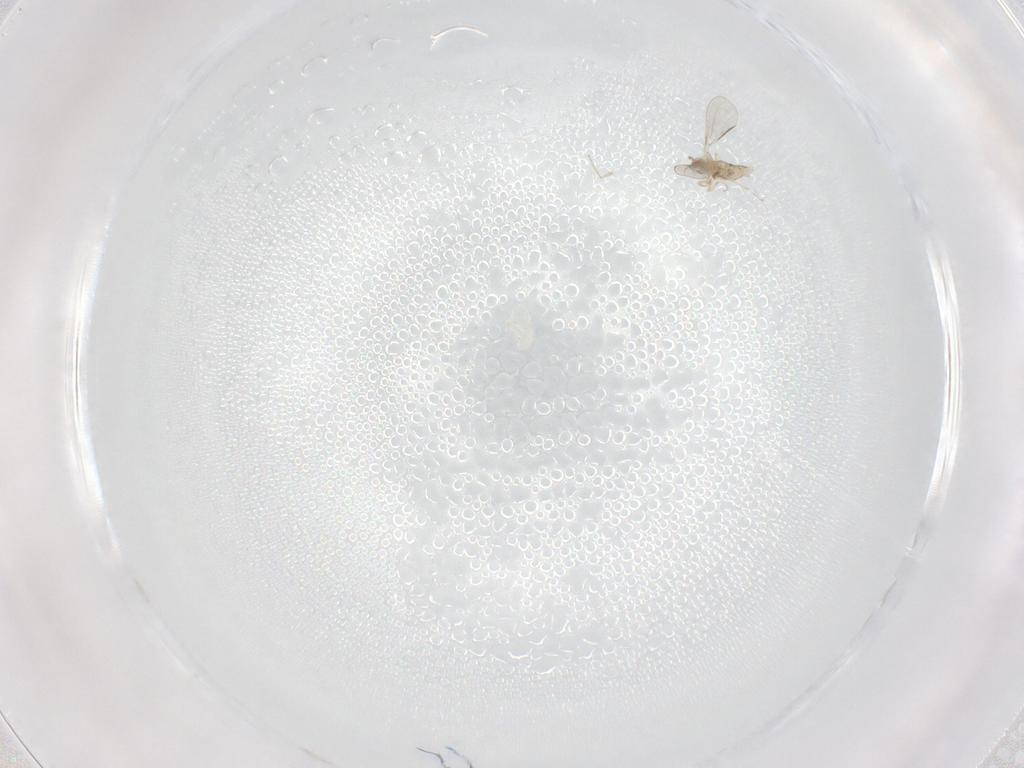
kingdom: Animalia
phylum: Arthropoda
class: Insecta
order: Diptera
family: Cecidomyiidae
